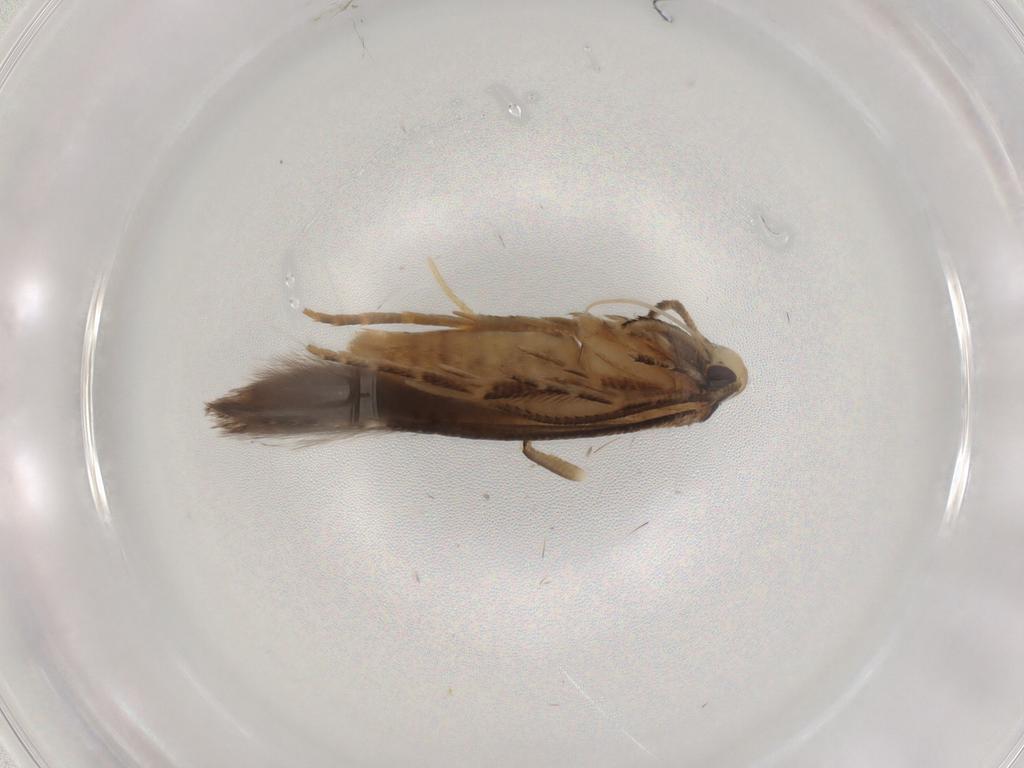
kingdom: Animalia
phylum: Arthropoda
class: Insecta
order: Lepidoptera
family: Cosmopterigidae
